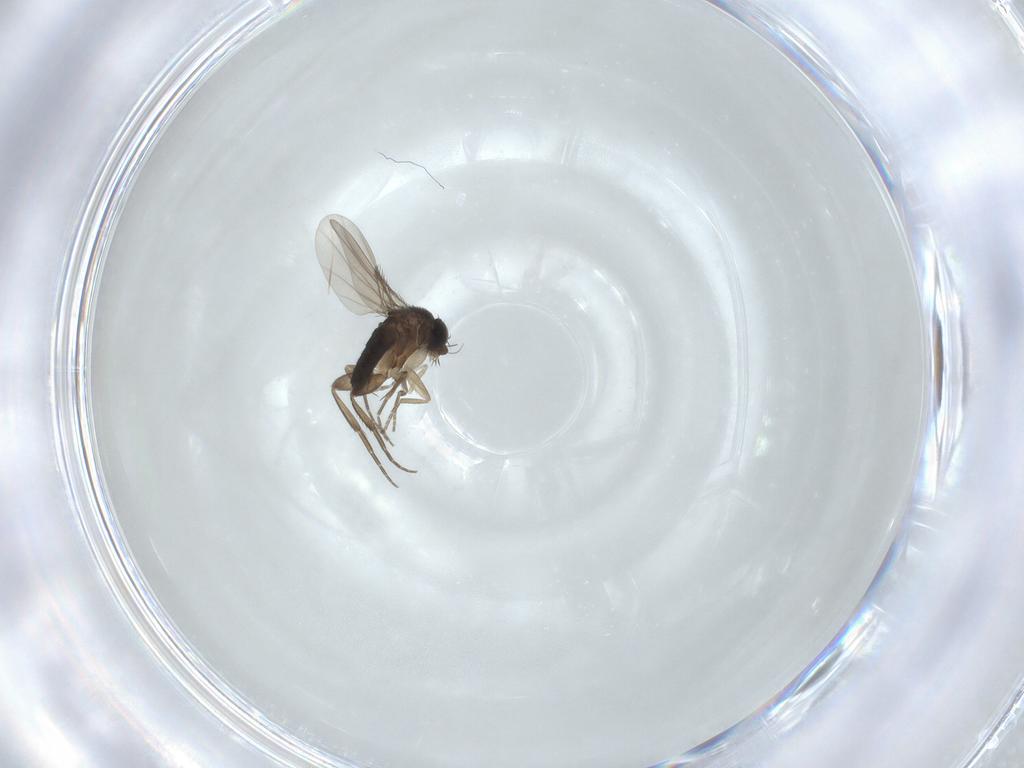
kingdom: Animalia
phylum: Arthropoda
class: Insecta
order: Diptera
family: Phoridae
